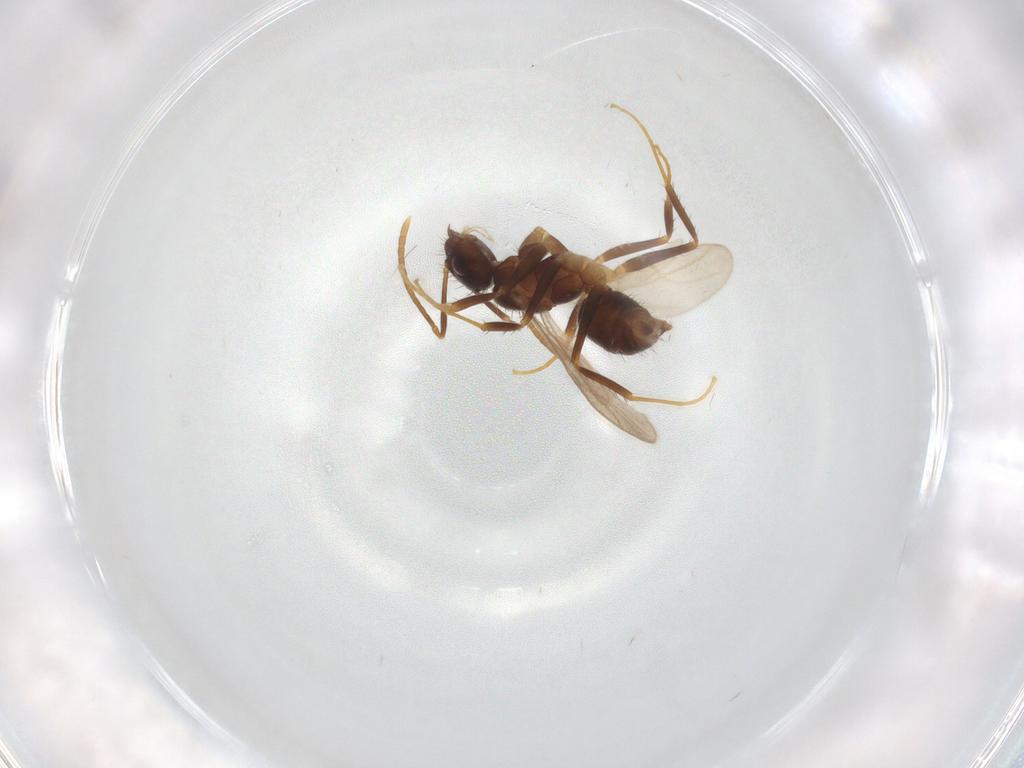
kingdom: Animalia
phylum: Arthropoda
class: Insecta
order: Hymenoptera
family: Formicidae
